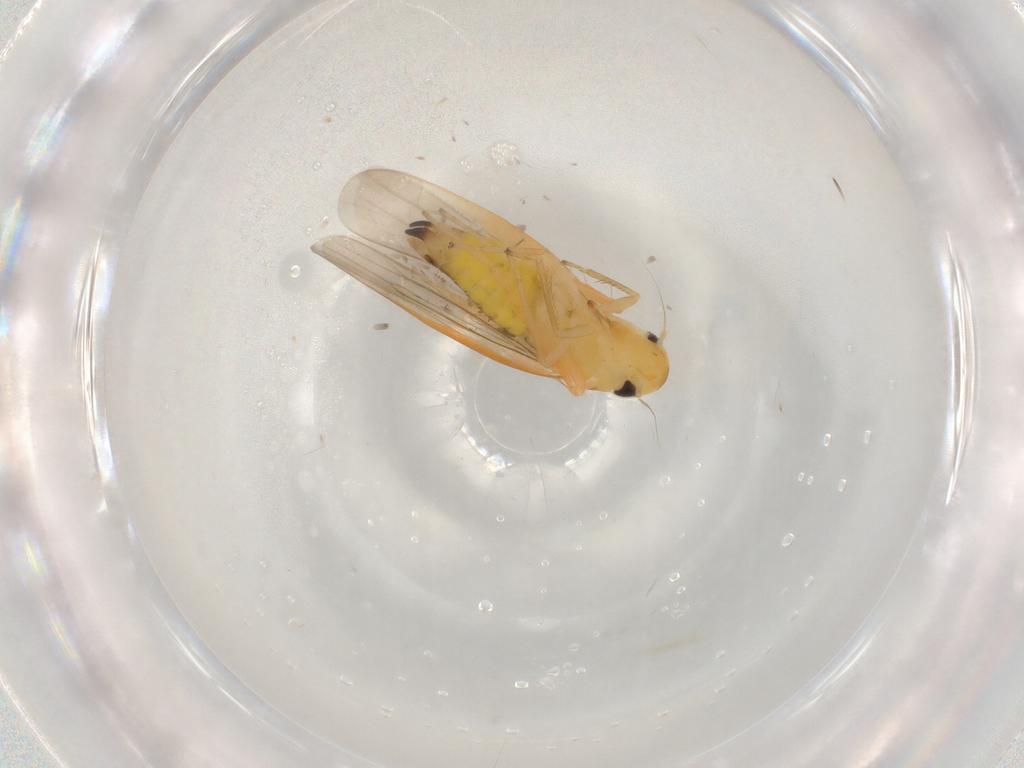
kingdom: Animalia
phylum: Arthropoda
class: Insecta
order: Hemiptera
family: Cicadellidae
